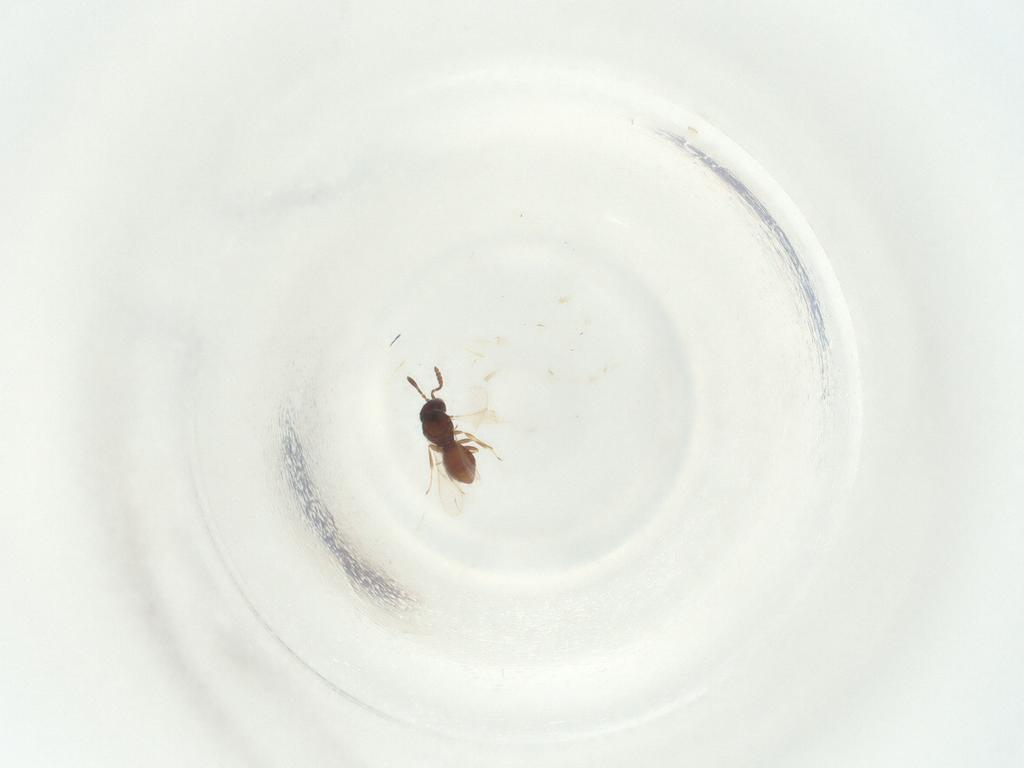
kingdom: Animalia
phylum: Arthropoda
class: Insecta
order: Hymenoptera
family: Scelionidae
